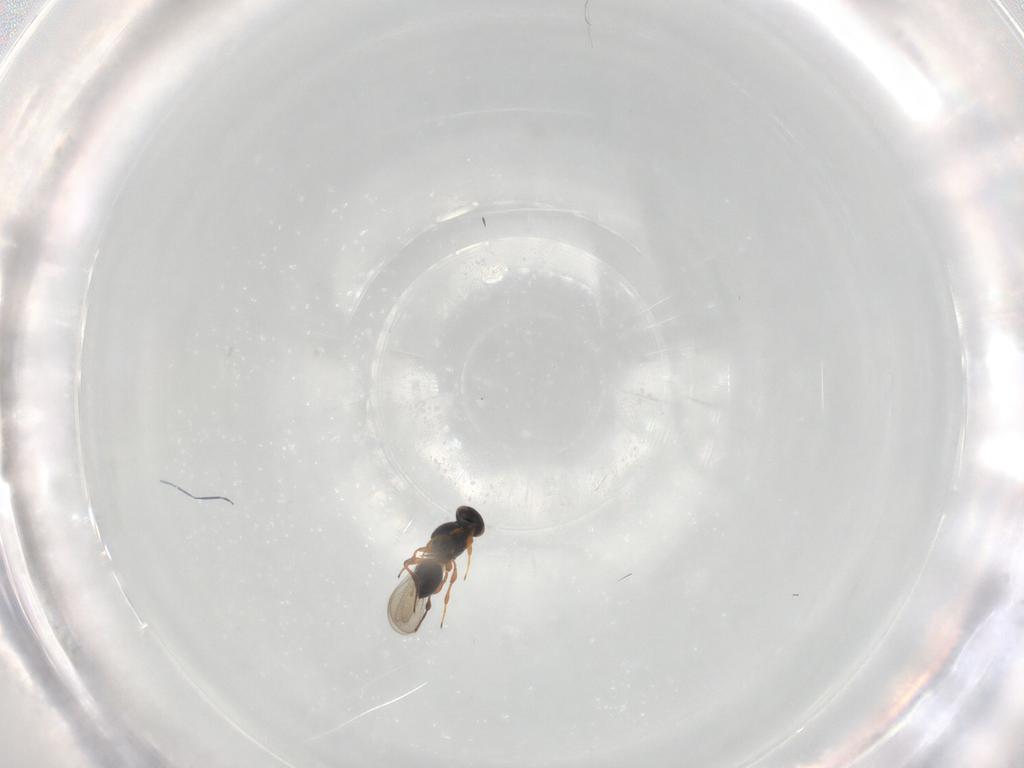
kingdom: Animalia
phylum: Arthropoda
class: Insecta
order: Hymenoptera
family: Platygastridae
